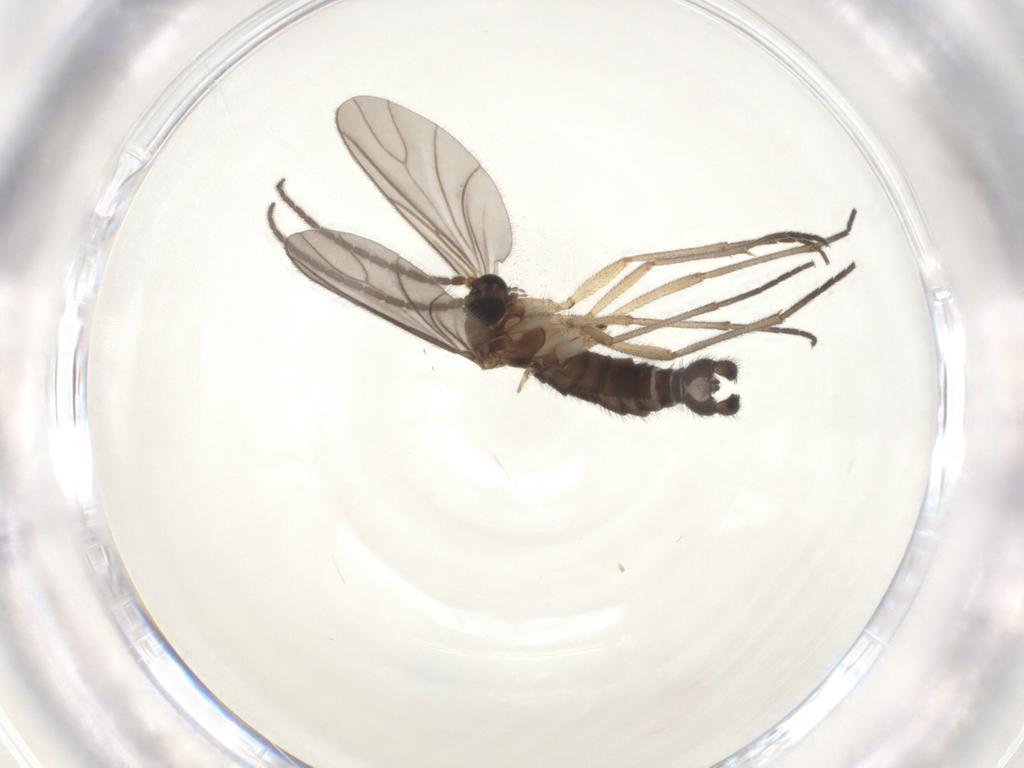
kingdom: Animalia
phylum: Arthropoda
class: Insecta
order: Diptera
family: Sciaridae
